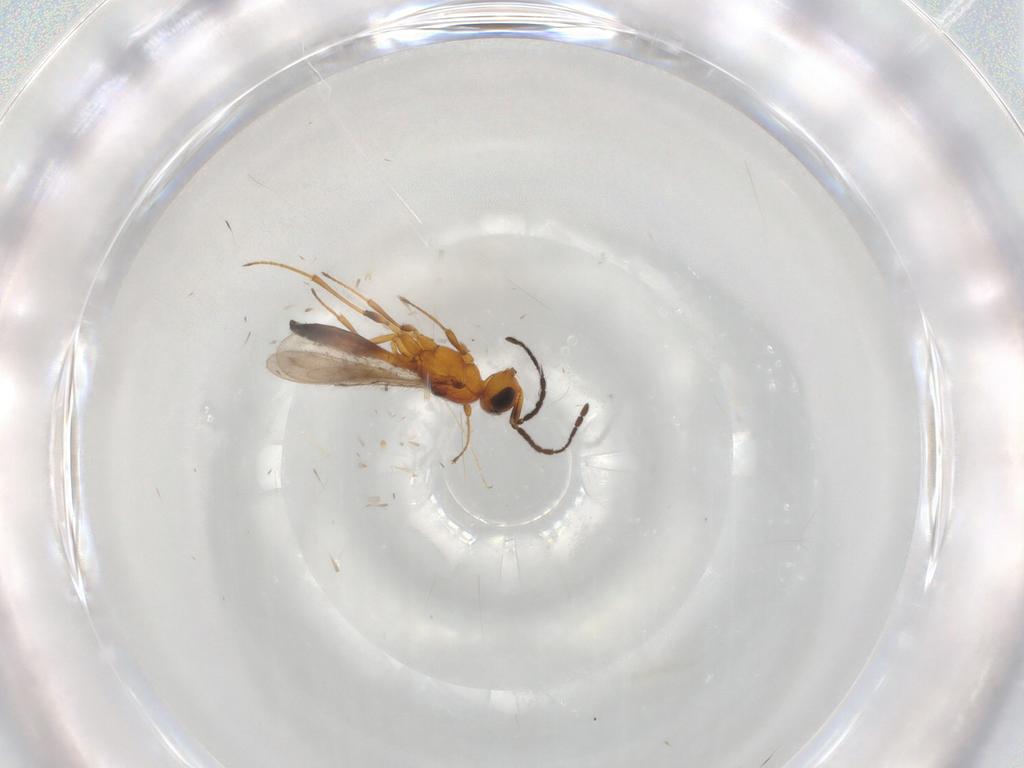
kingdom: Animalia
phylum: Arthropoda
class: Insecta
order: Hymenoptera
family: Scelionidae
